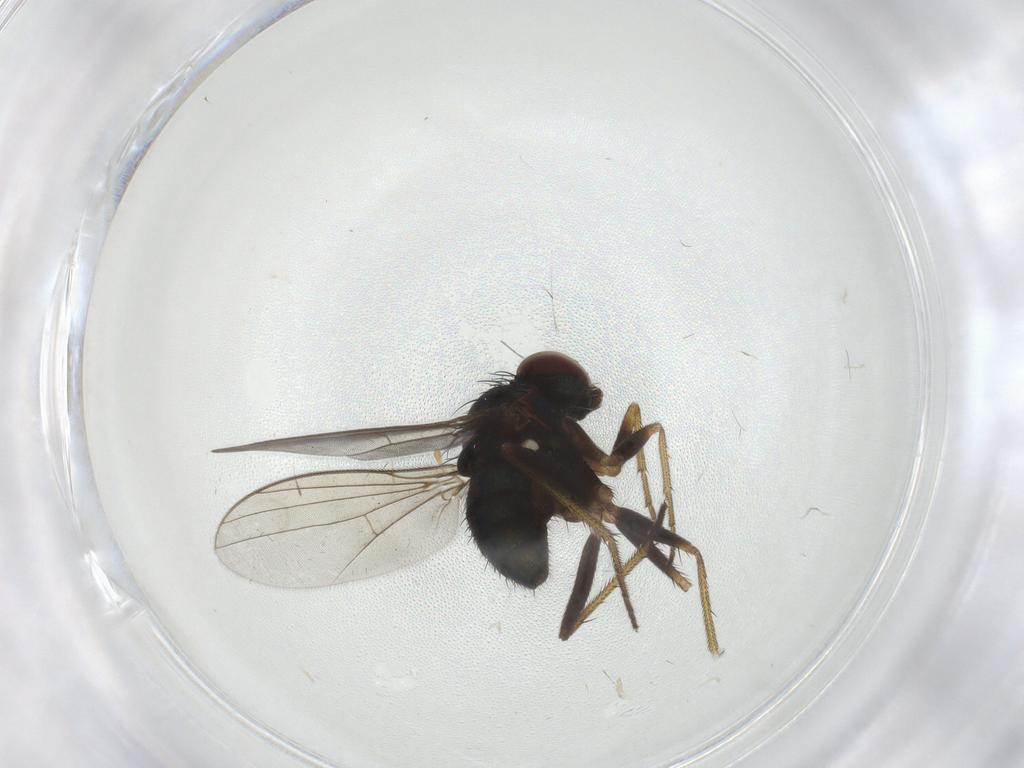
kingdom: Animalia
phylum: Arthropoda
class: Insecta
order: Diptera
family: Dolichopodidae
